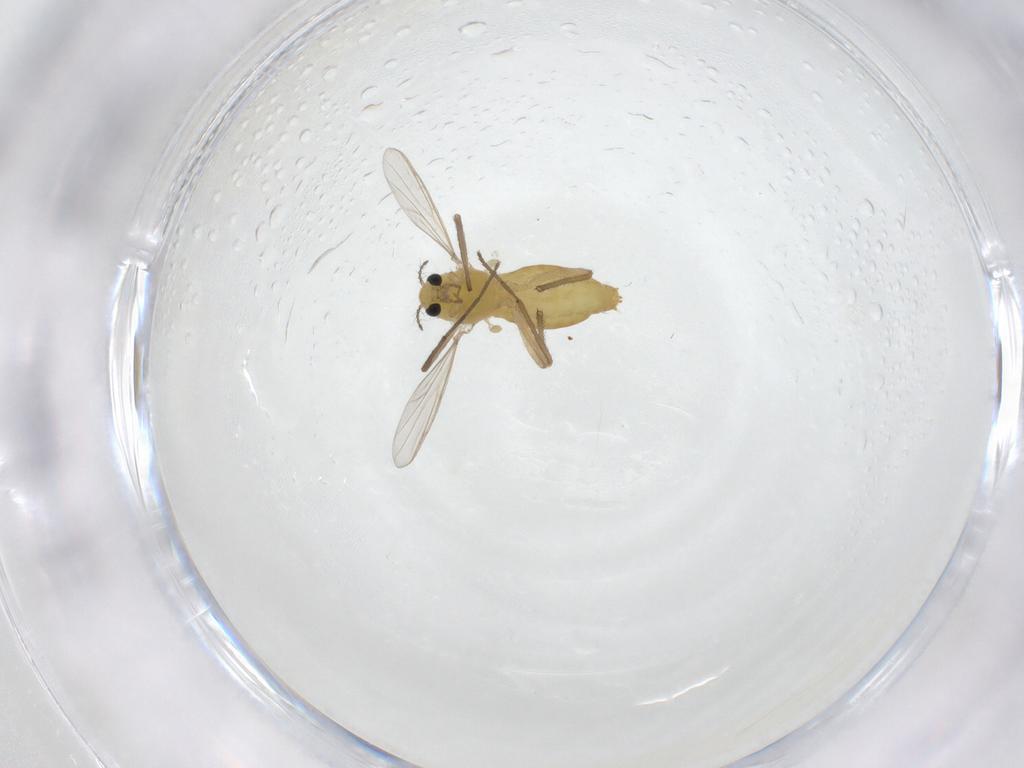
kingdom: Animalia
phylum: Arthropoda
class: Insecta
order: Diptera
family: Chironomidae
